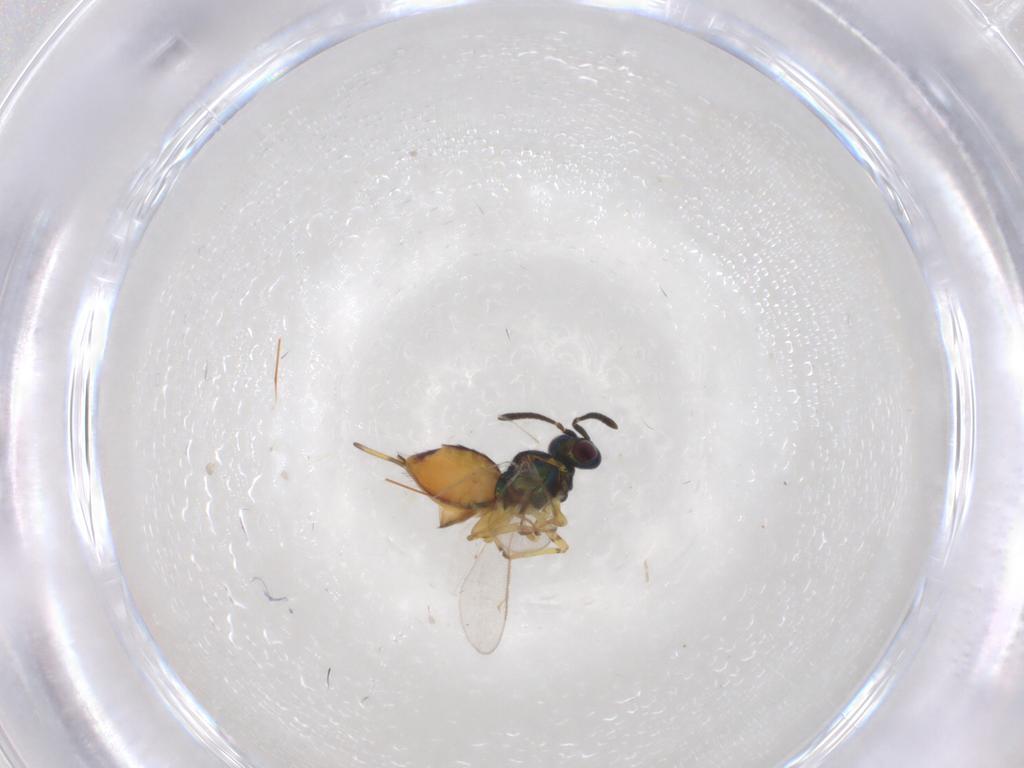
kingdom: Animalia
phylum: Arthropoda
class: Insecta
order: Hymenoptera
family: Eupelmidae
